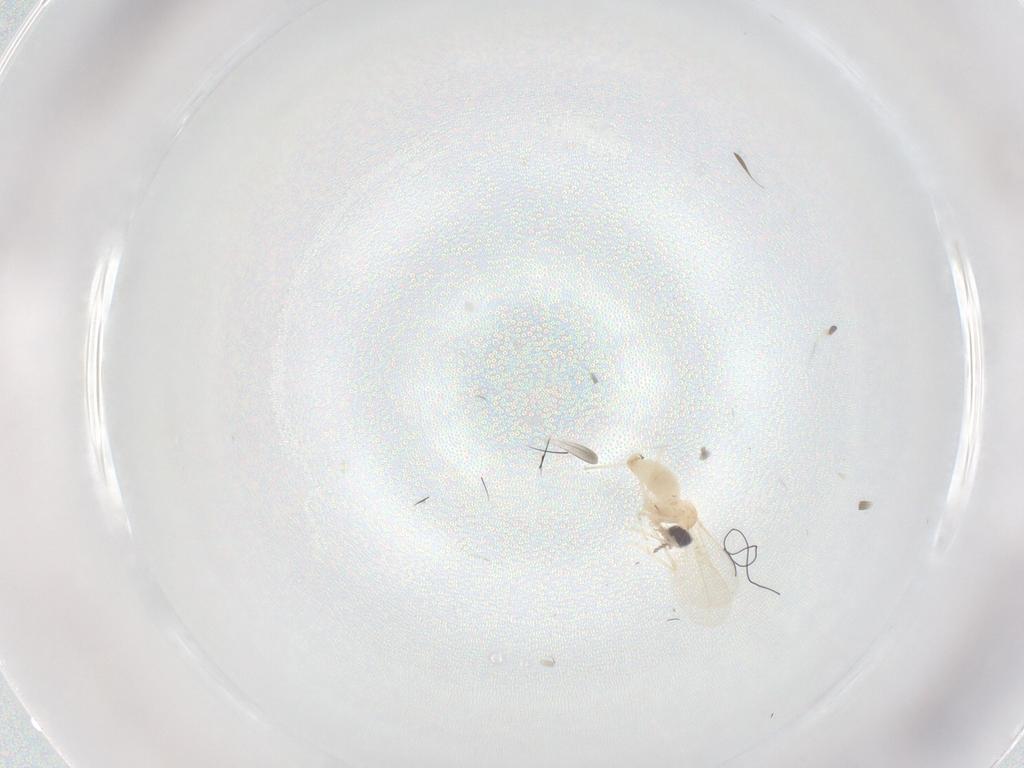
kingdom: Animalia
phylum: Arthropoda
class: Insecta
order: Diptera
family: Cecidomyiidae
